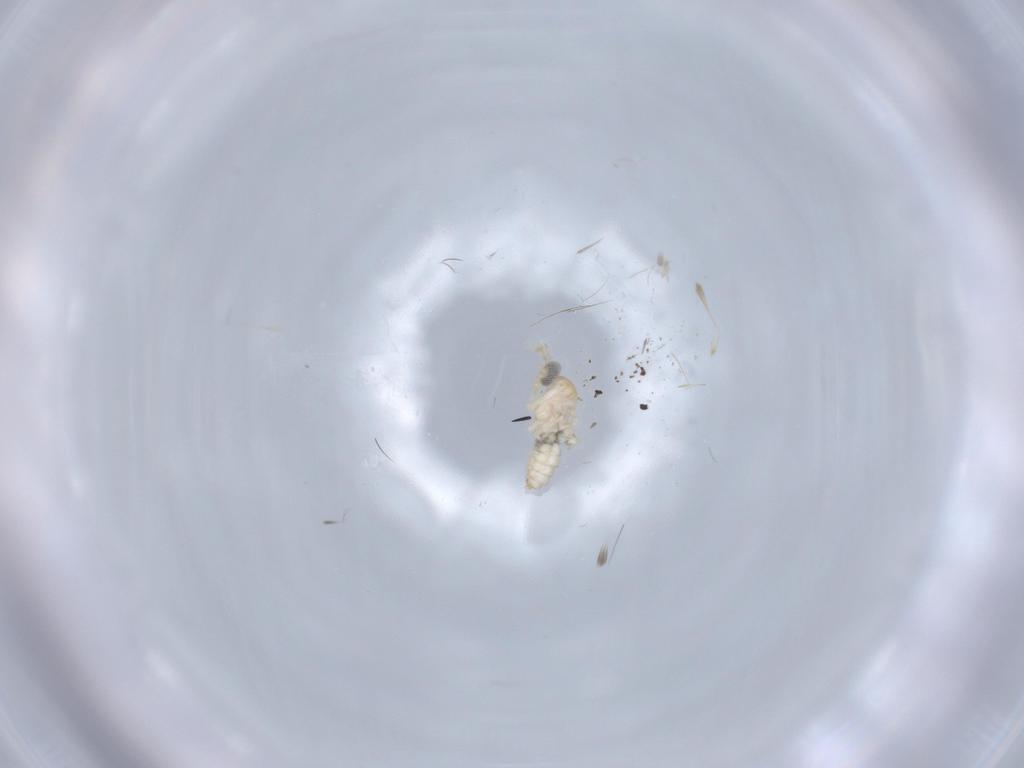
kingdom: Animalia
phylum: Arthropoda
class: Insecta
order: Diptera
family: Cecidomyiidae
